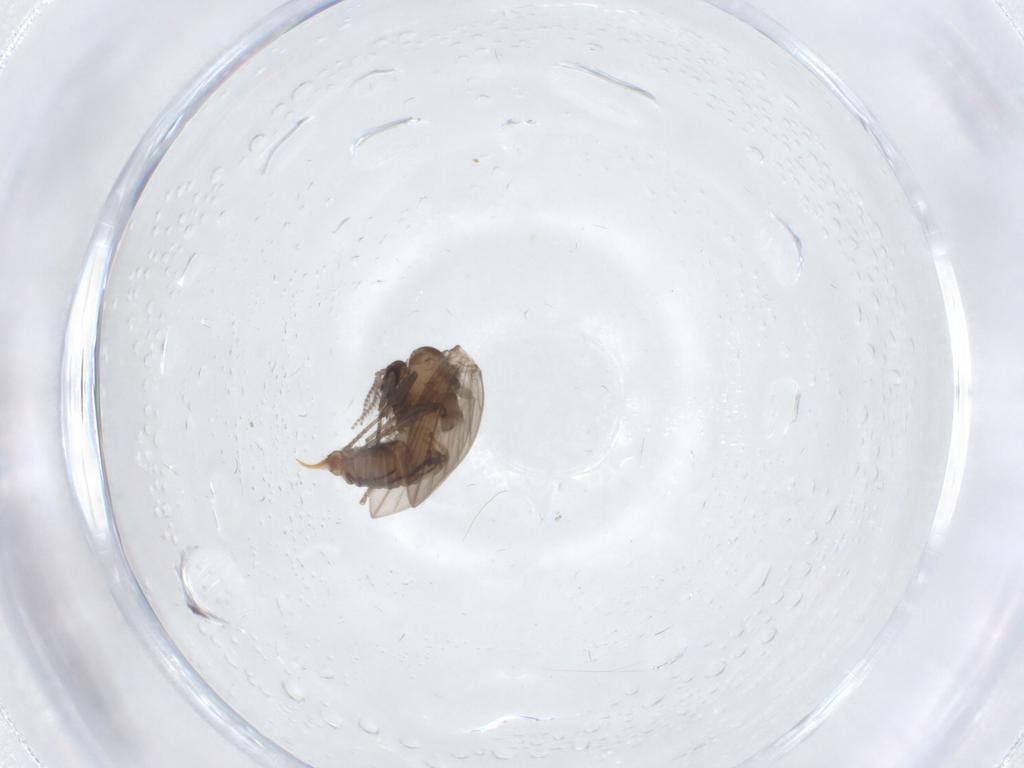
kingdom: Animalia
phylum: Arthropoda
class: Insecta
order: Diptera
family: Psychodidae
